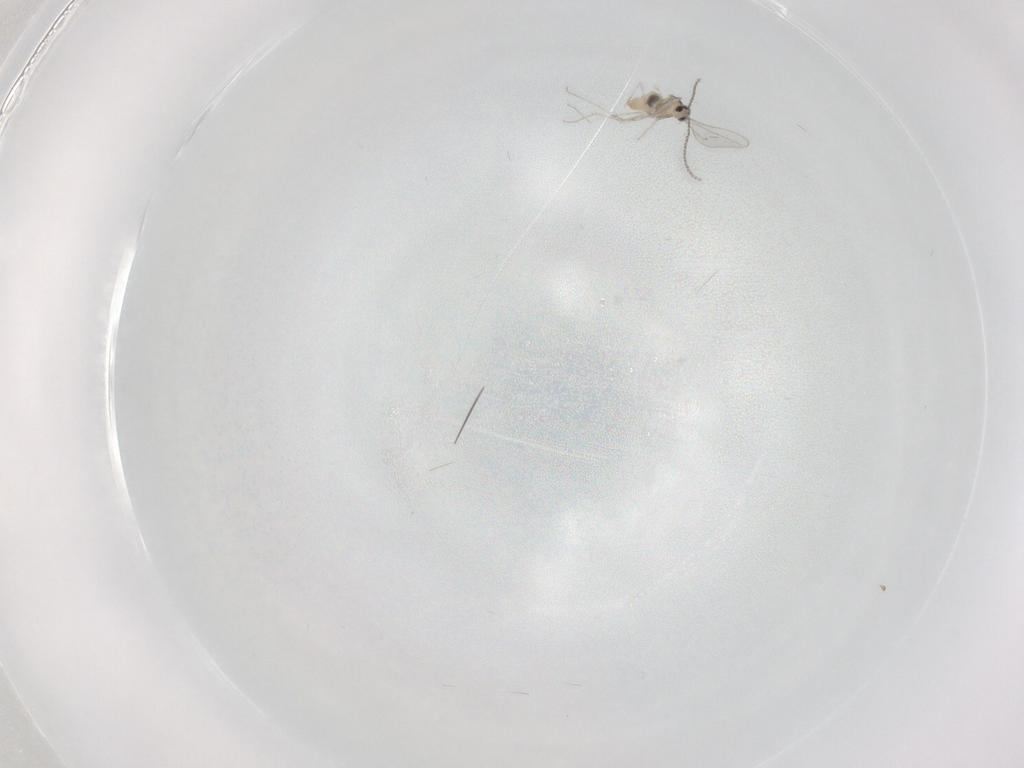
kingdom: Animalia
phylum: Arthropoda
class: Insecta
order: Diptera
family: Cecidomyiidae
